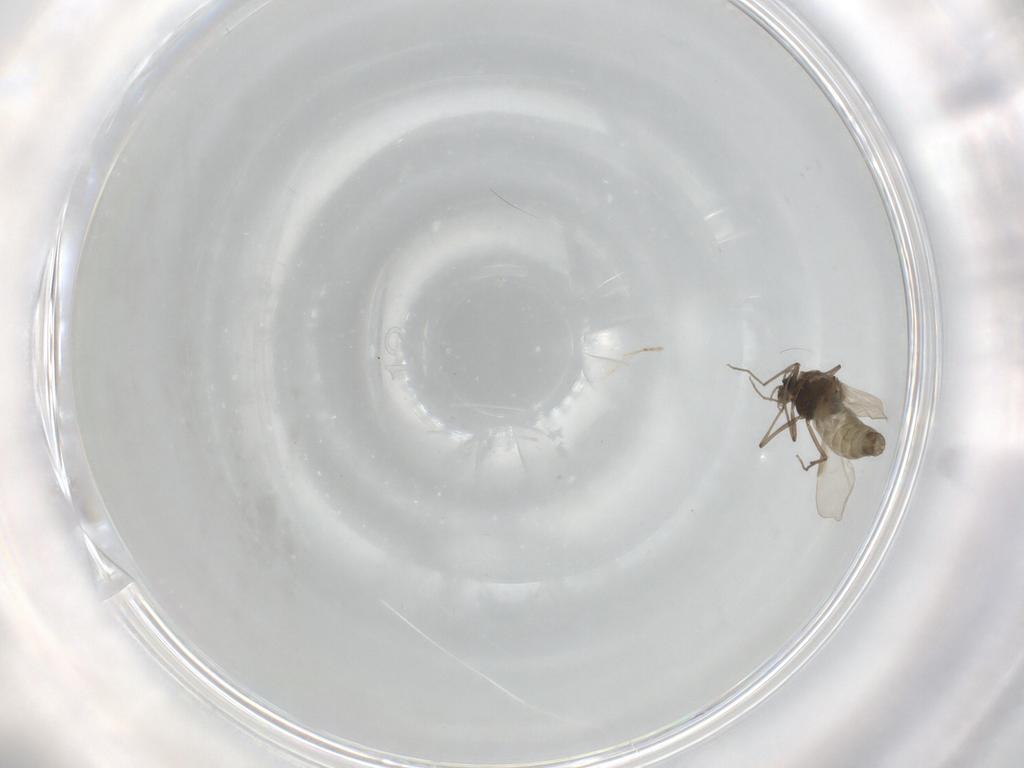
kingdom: Animalia
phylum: Arthropoda
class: Insecta
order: Diptera
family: Chironomidae
